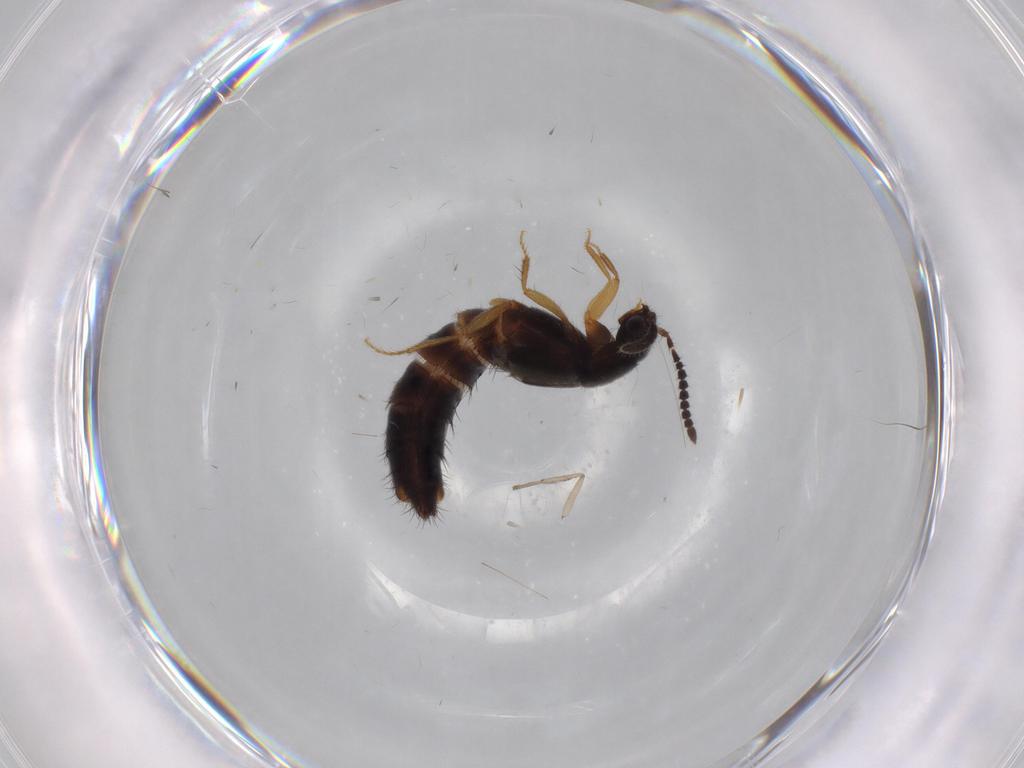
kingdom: Animalia
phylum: Arthropoda
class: Insecta
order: Coleoptera
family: Staphylinidae
